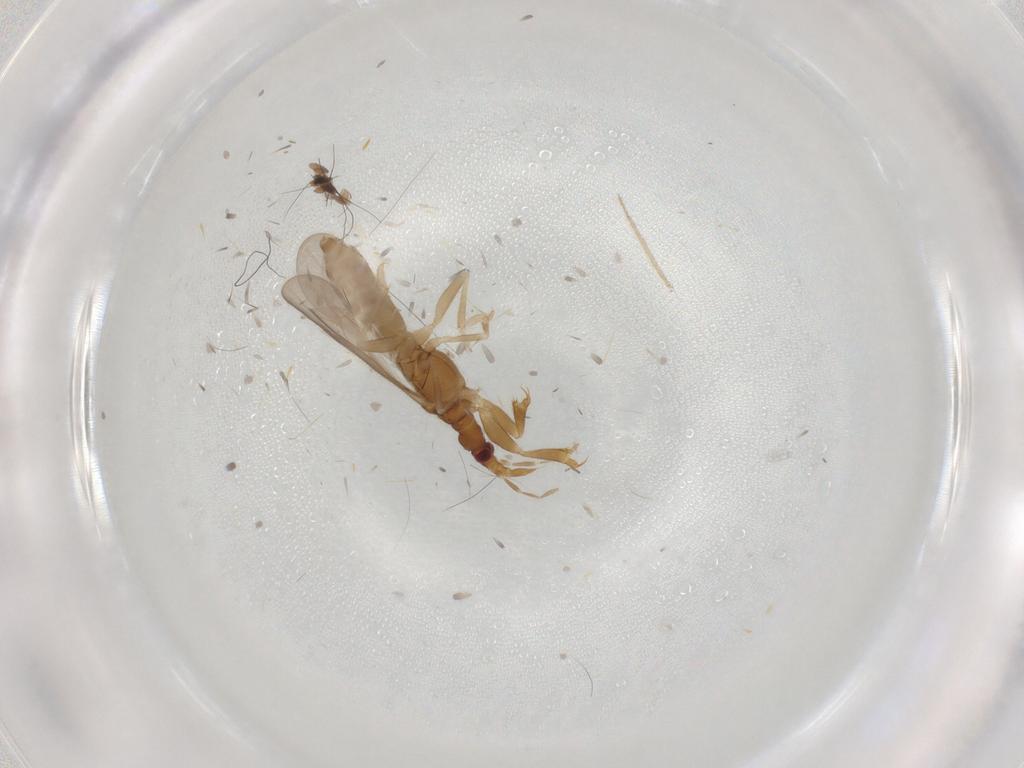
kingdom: Animalia
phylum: Arthropoda
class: Insecta
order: Hemiptera
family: Enicocephalidae
